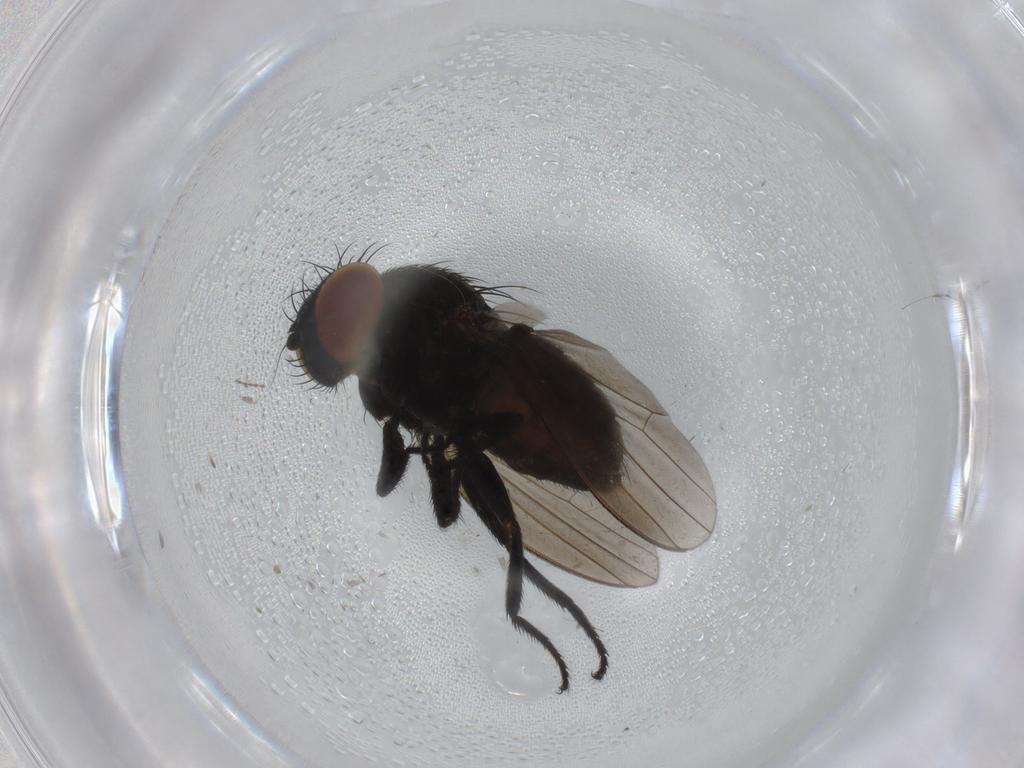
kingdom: Animalia
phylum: Arthropoda
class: Insecta
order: Diptera
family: Milichiidae
